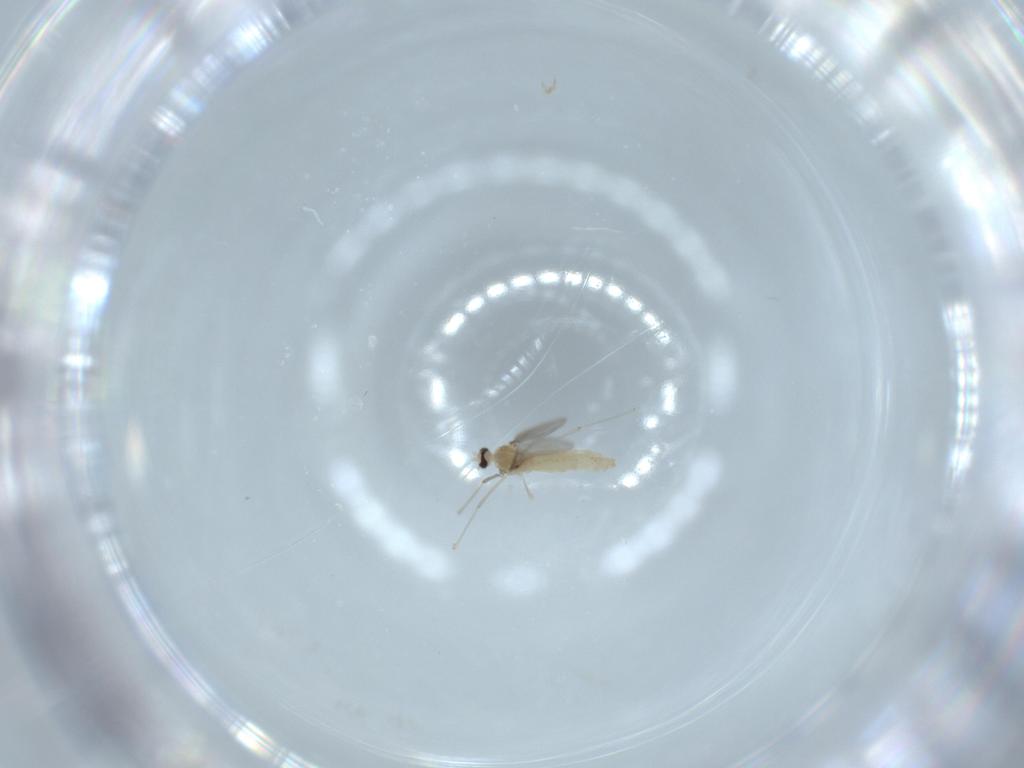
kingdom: Animalia
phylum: Arthropoda
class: Insecta
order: Diptera
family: Cecidomyiidae
